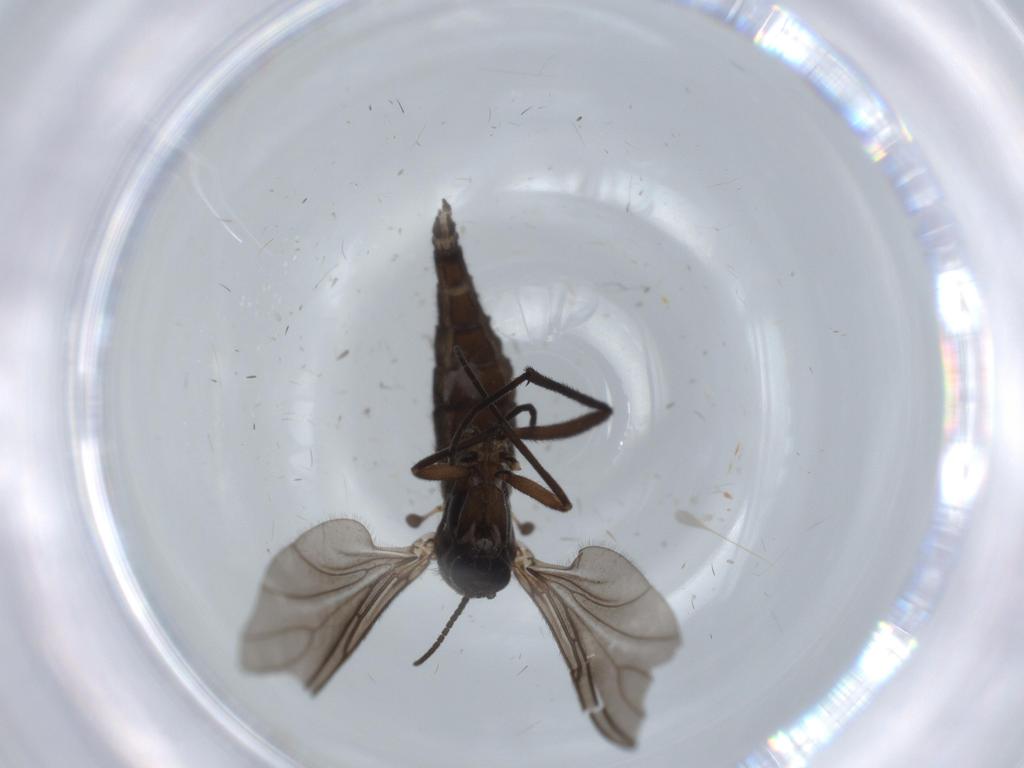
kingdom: Animalia
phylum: Arthropoda
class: Insecta
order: Diptera
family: Sciaridae
